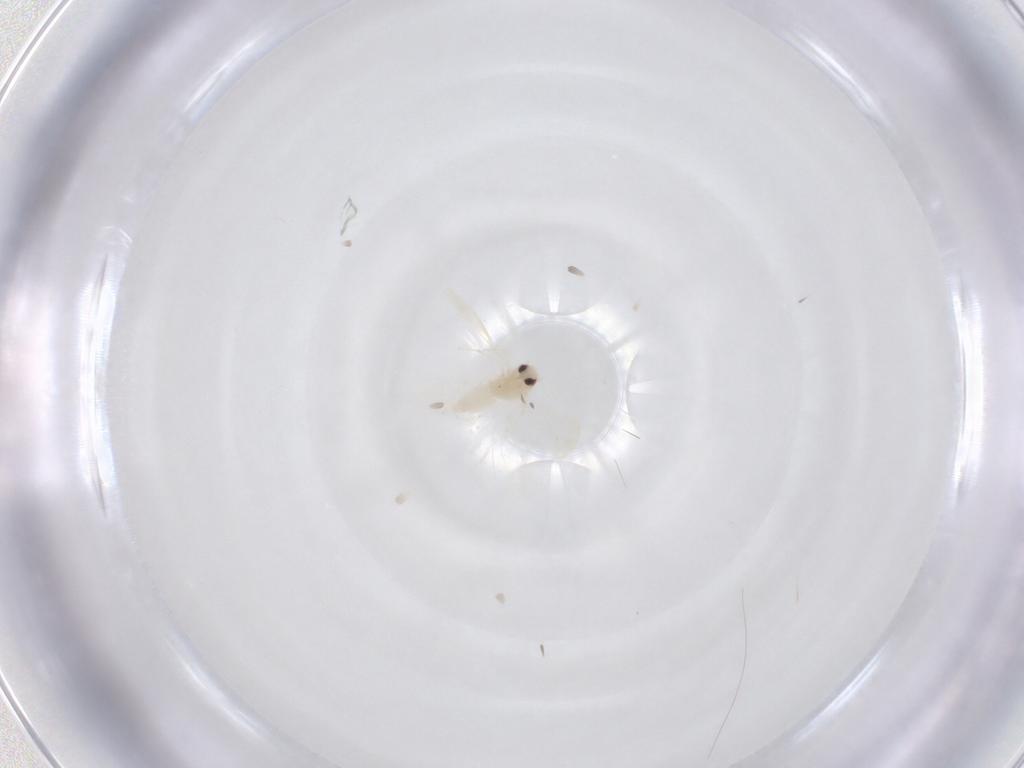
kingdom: Animalia
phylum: Arthropoda
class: Insecta
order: Hemiptera
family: Aleyrodidae
